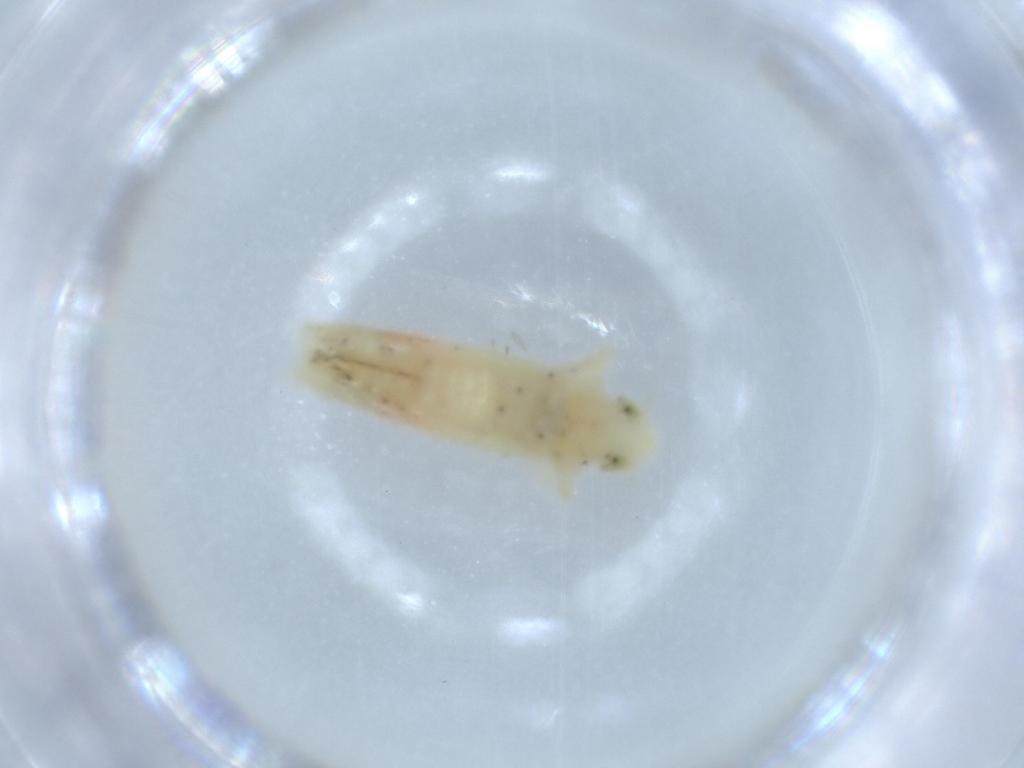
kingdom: Animalia
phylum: Arthropoda
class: Insecta
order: Hemiptera
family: Cicadellidae
